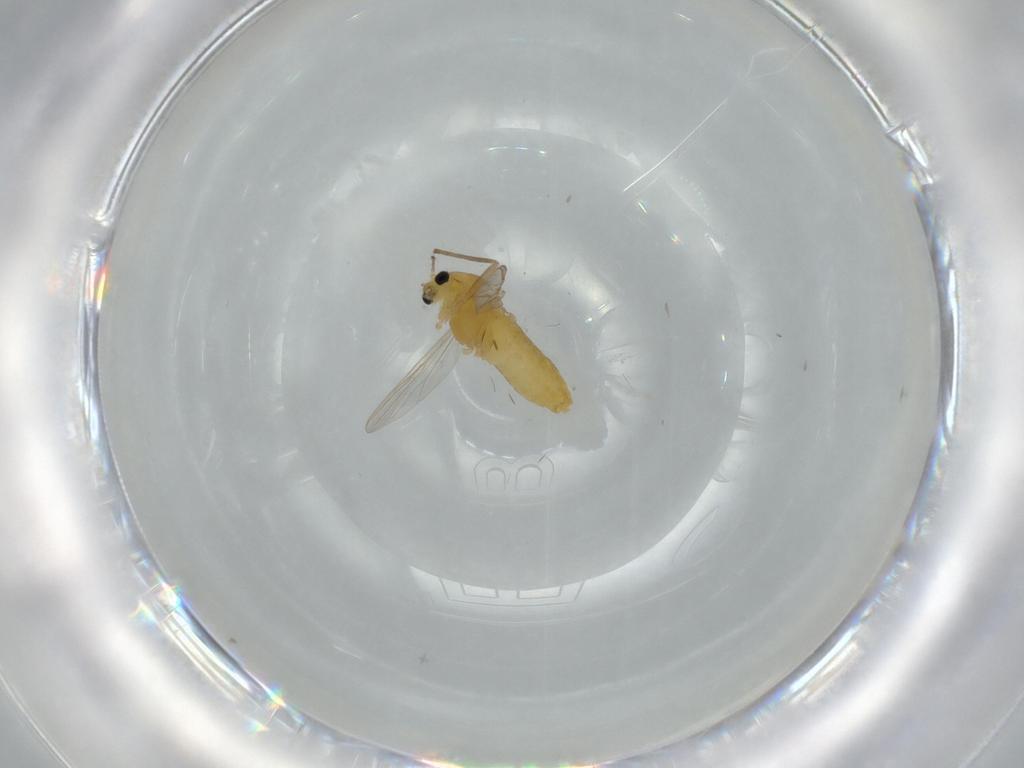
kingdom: Animalia
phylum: Arthropoda
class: Insecta
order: Diptera
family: Chironomidae
